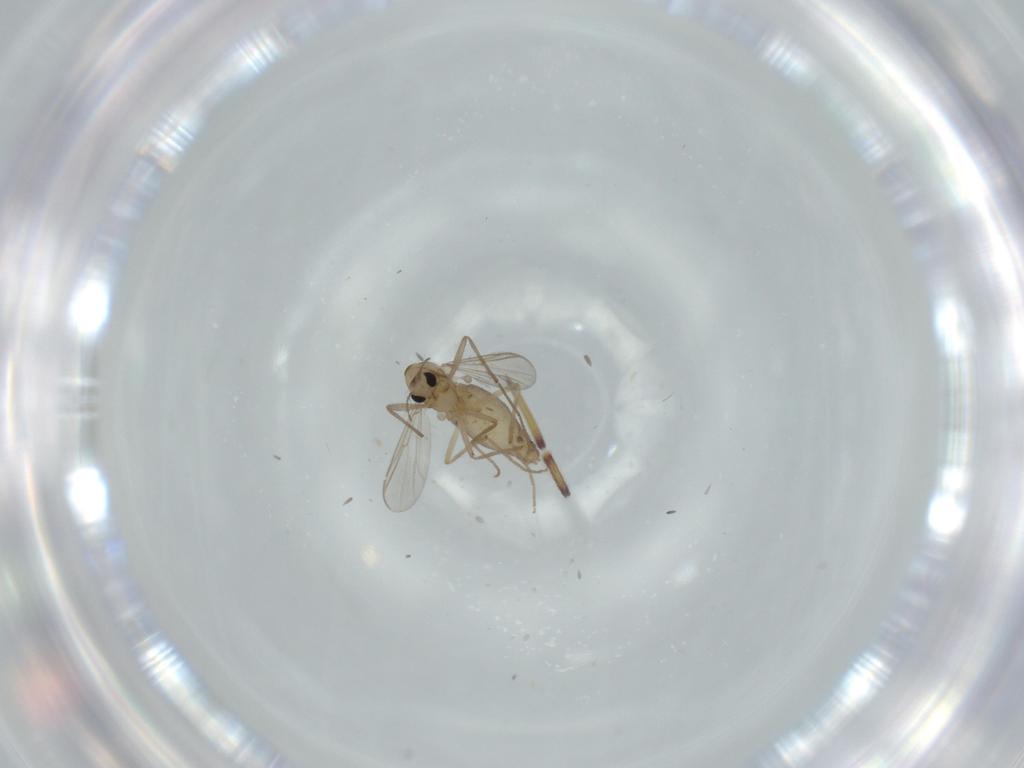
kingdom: Animalia
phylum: Arthropoda
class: Insecta
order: Diptera
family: Chironomidae
